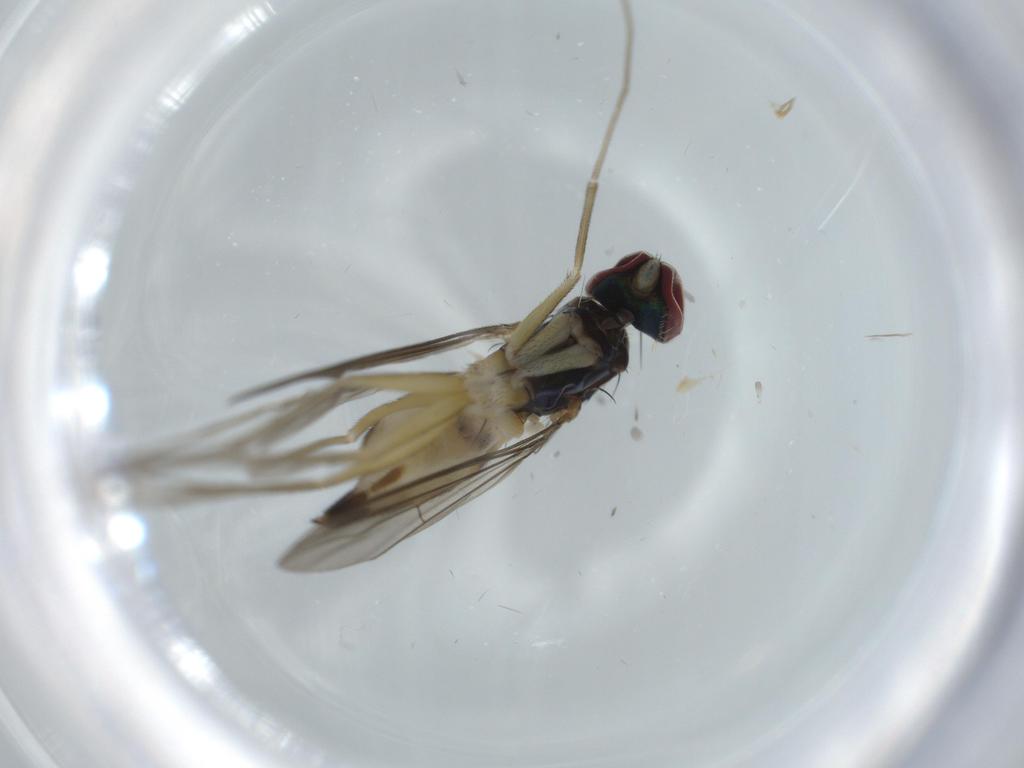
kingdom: Animalia
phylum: Arthropoda
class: Insecta
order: Diptera
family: Dolichopodidae
